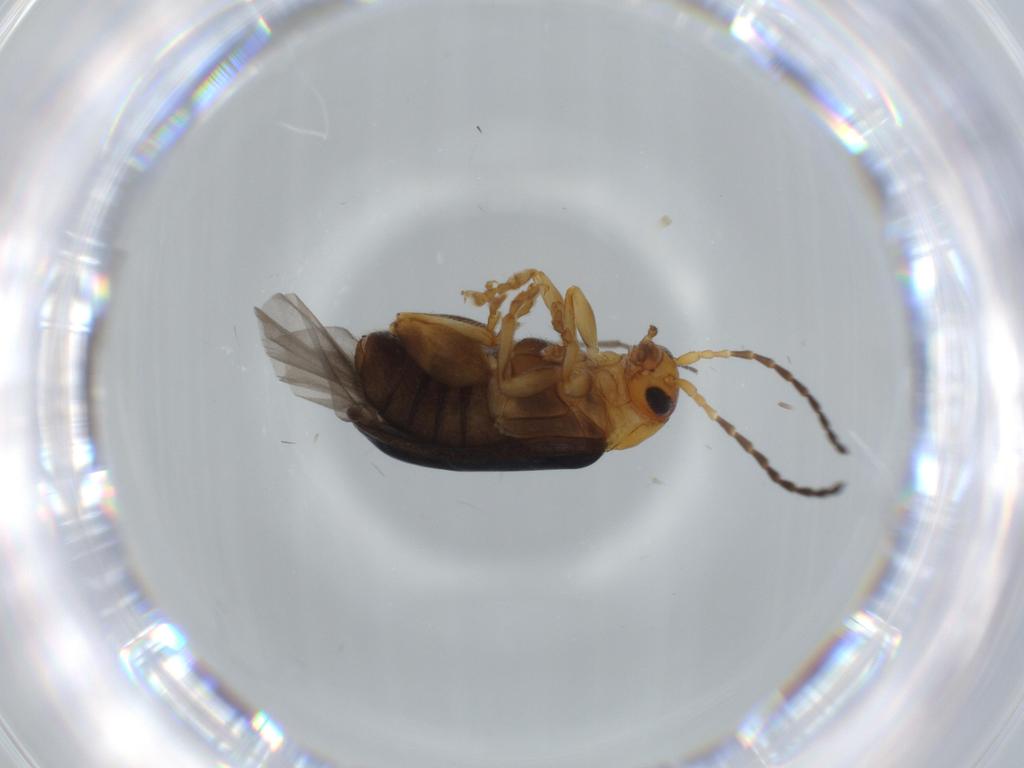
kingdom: Animalia
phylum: Arthropoda
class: Insecta
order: Coleoptera
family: Chrysomelidae
